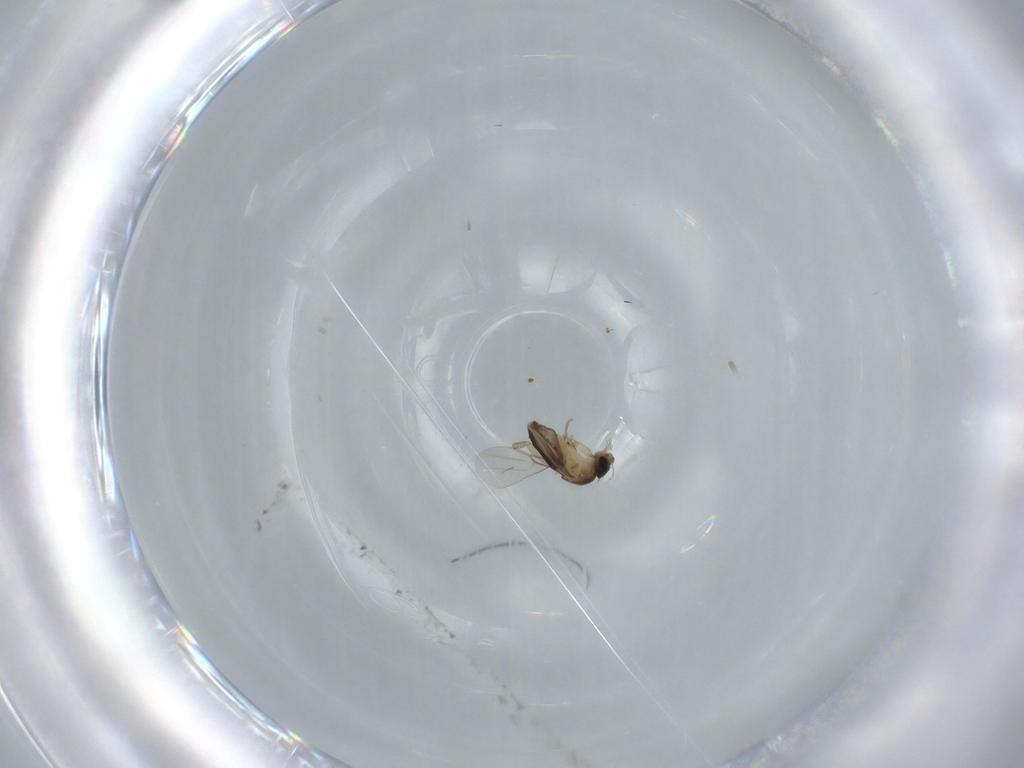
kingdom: Animalia
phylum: Arthropoda
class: Insecta
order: Diptera
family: Phoridae
